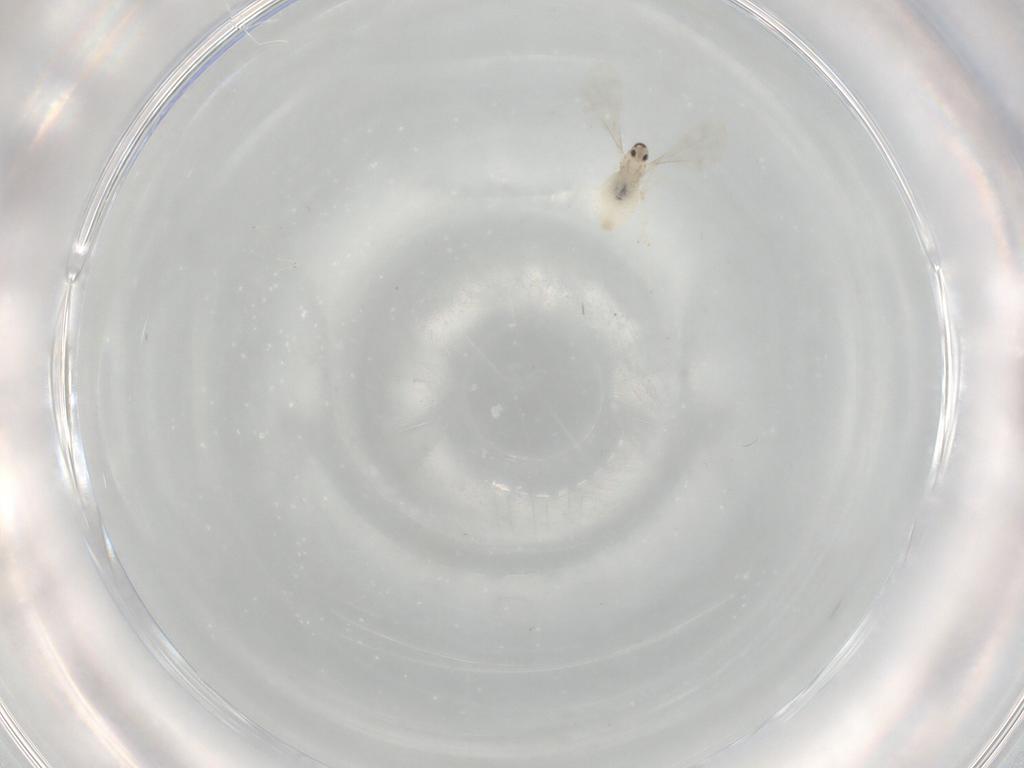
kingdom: Animalia
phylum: Arthropoda
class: Insecta
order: Diptera
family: Cecidomyiidae
